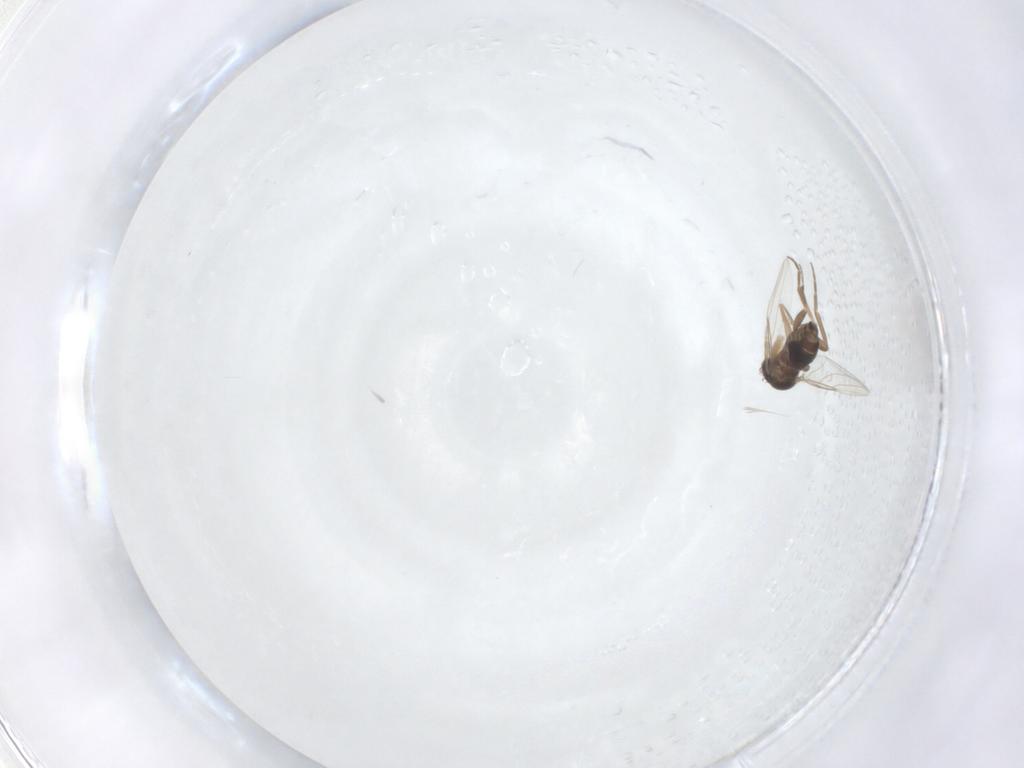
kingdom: Animalia
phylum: Arthropoda
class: Insecta
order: Diptera
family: Phoridae
